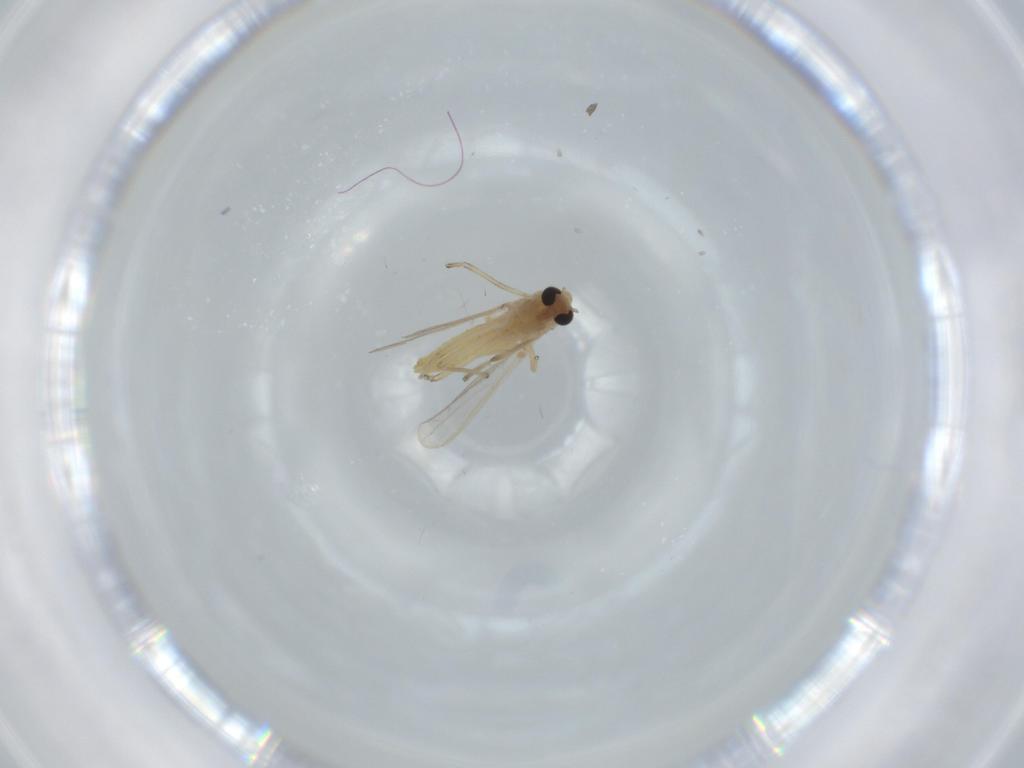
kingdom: Animalia
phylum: Arthropoda
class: Insecta
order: Diptera
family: Chironomidae
